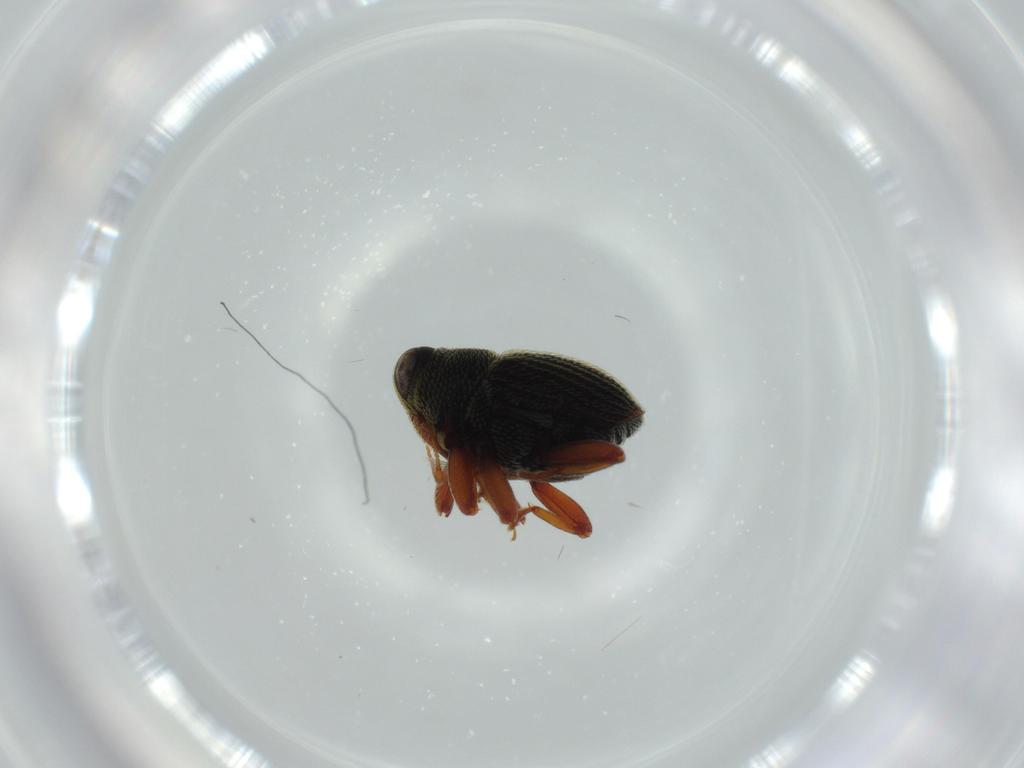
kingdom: Animalia
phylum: Arthropoda
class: Insecta
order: Coleoptera
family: Curculionidae
